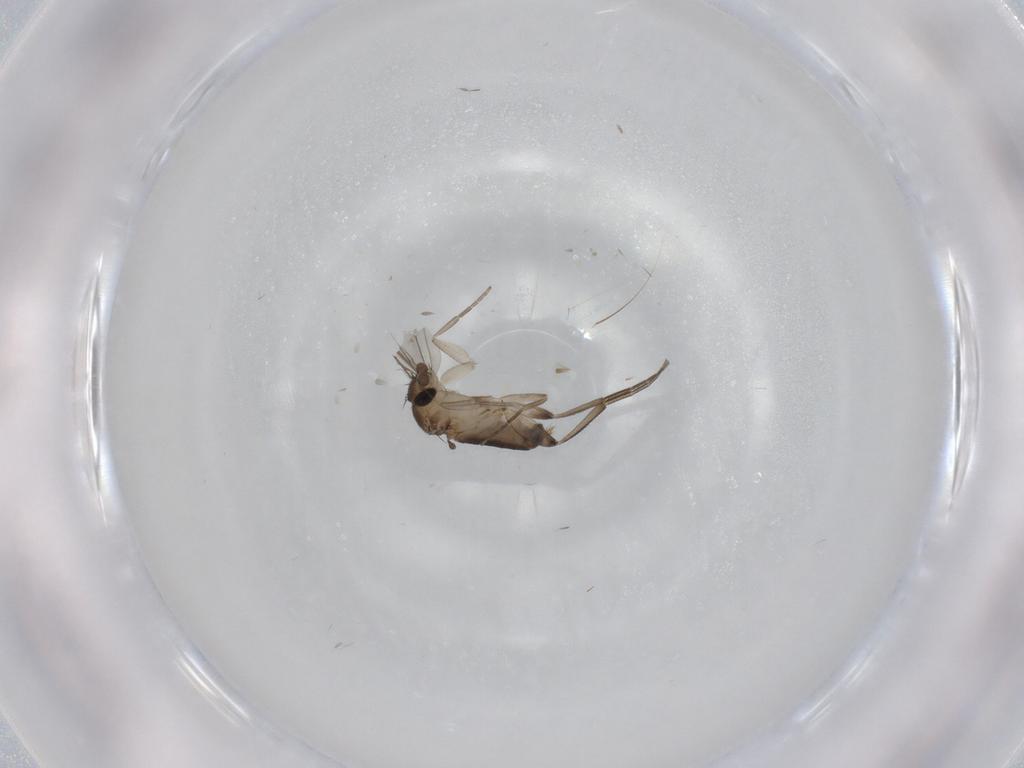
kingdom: Animalia
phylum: Arthropoda
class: Insecta
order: Diptera
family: Phoridae
